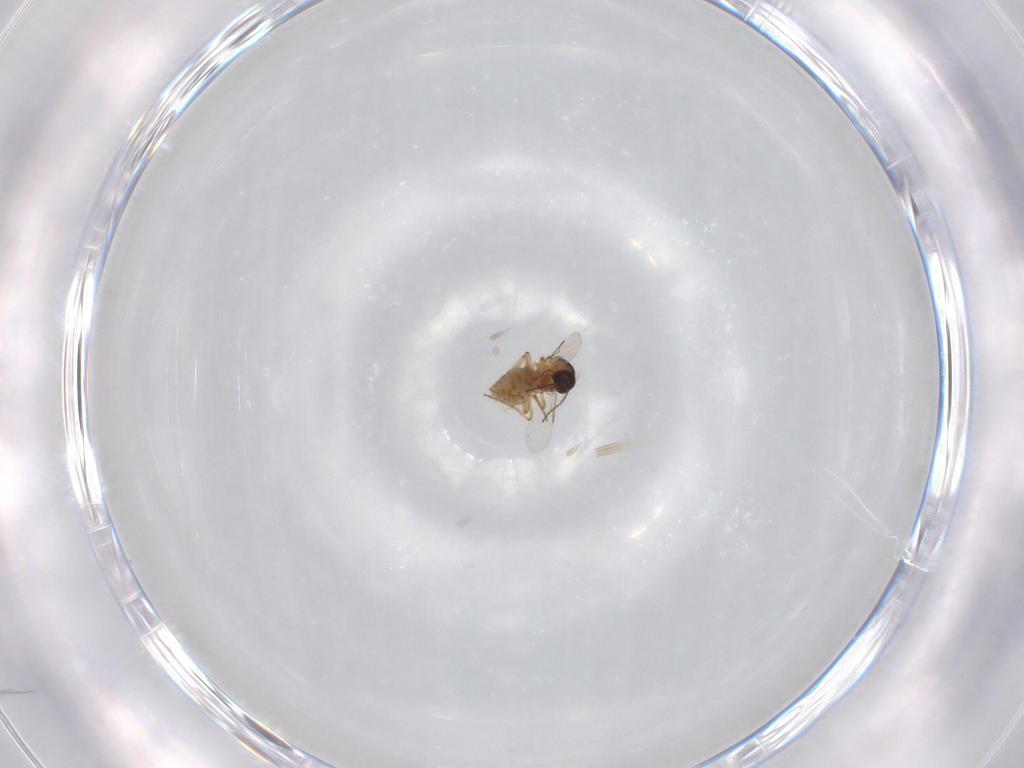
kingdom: Animalia
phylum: Arthropoda
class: Insecta
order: Diptera
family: Ceratopogonidae
